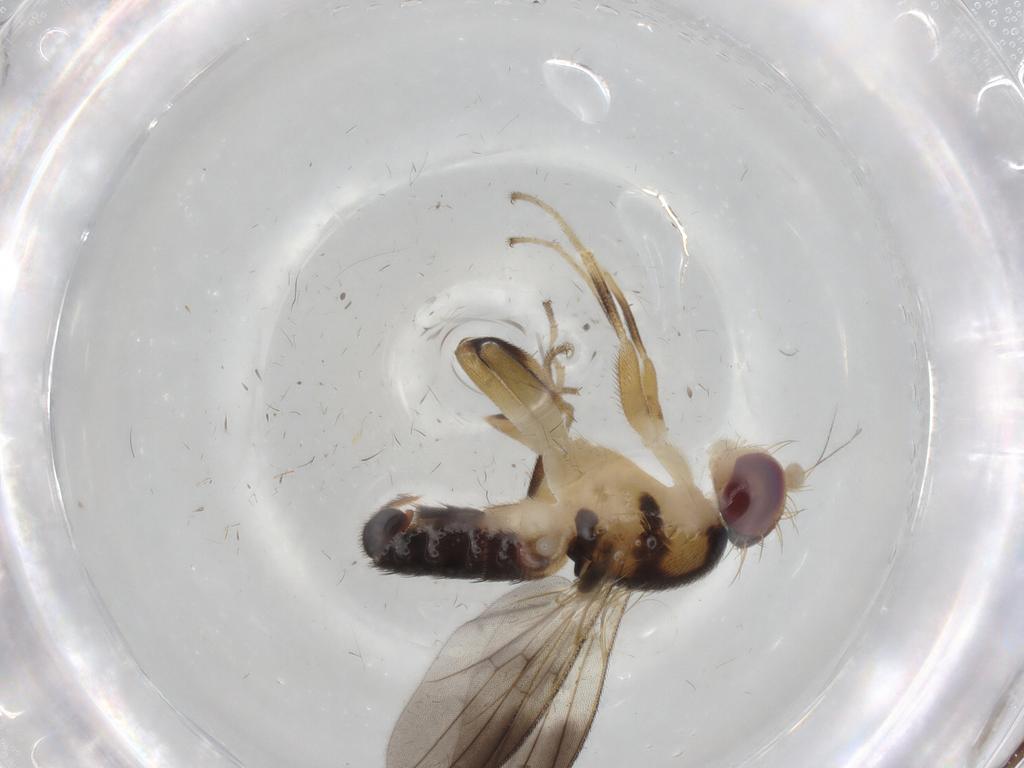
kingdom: Animalia
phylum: Arthropoda
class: Insecta
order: Diptera
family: Clusiidae
